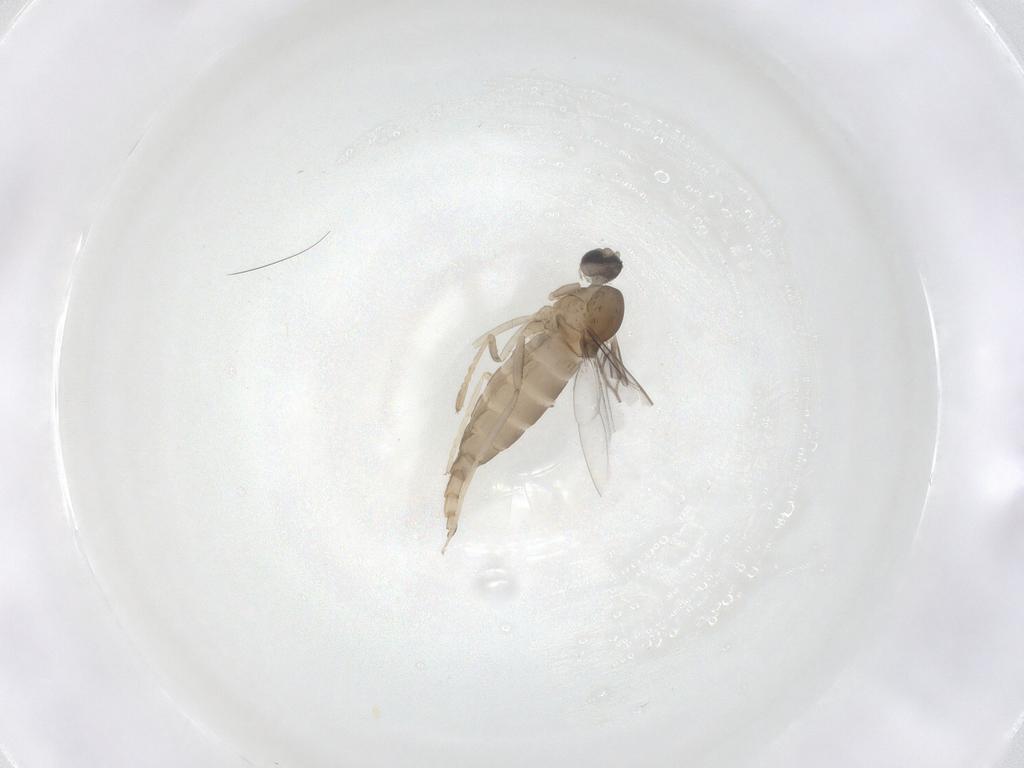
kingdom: Animalia
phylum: Arthropoda
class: Insecta
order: Diptera
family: Cecidomyiidae
